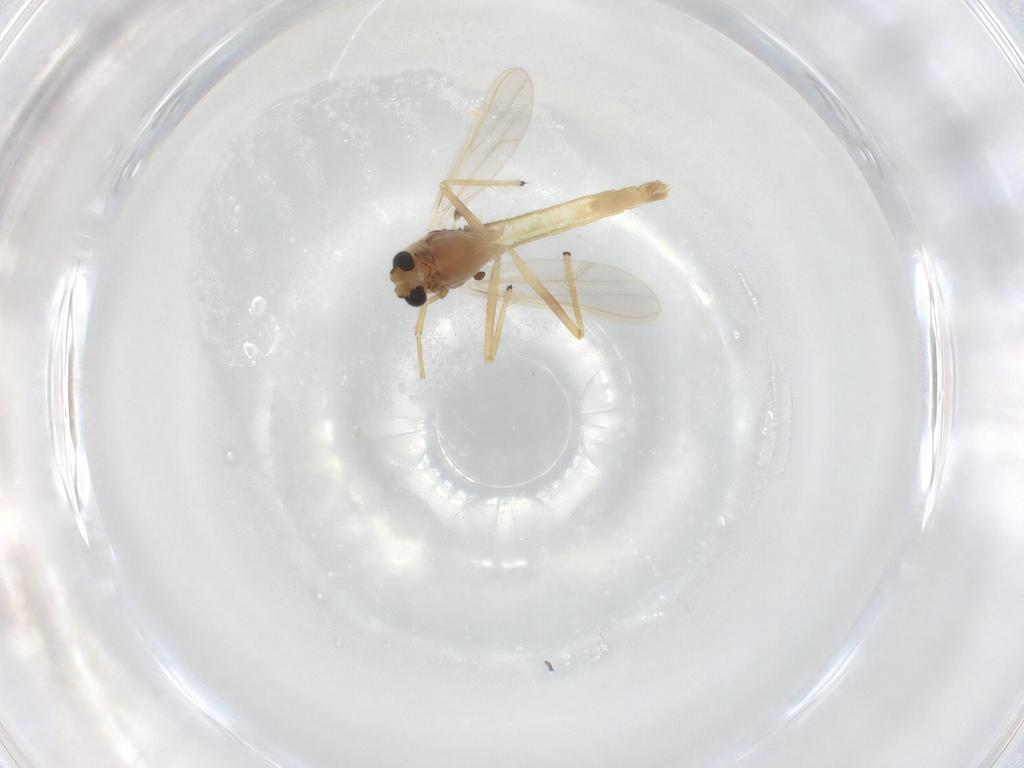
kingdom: Animalia
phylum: Arthropoda
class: Insecta
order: Diptera
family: Chironomidae
